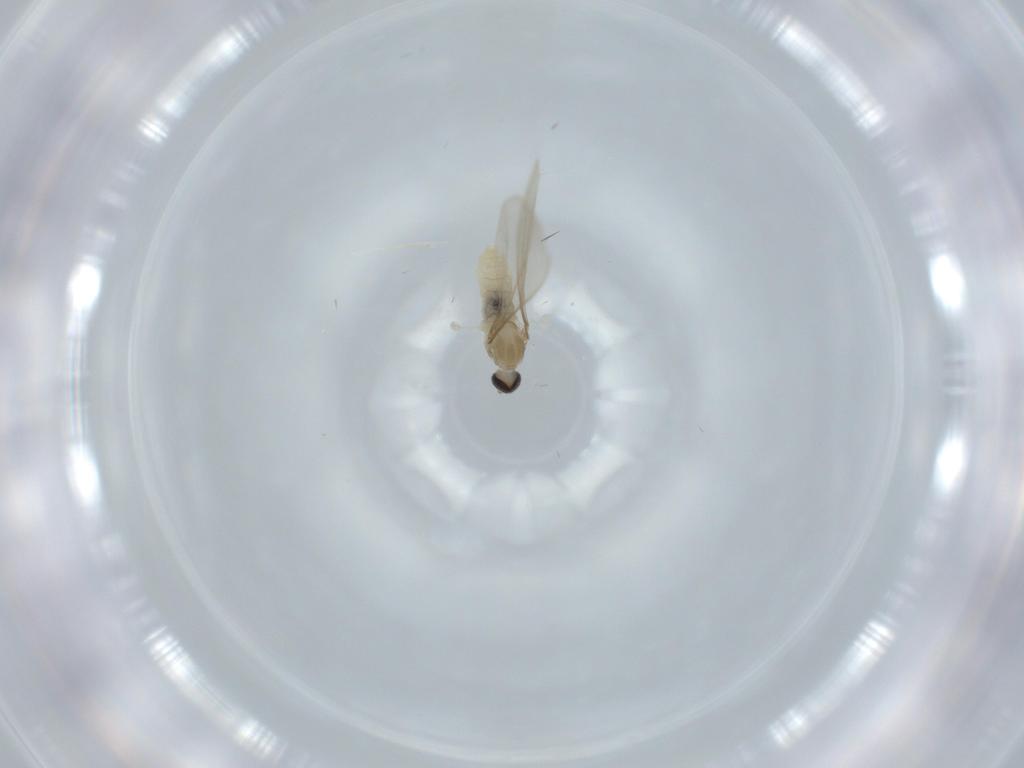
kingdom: Animalia
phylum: Arthropoda
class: Insecta
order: Diptera
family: Cecidomyiidae
